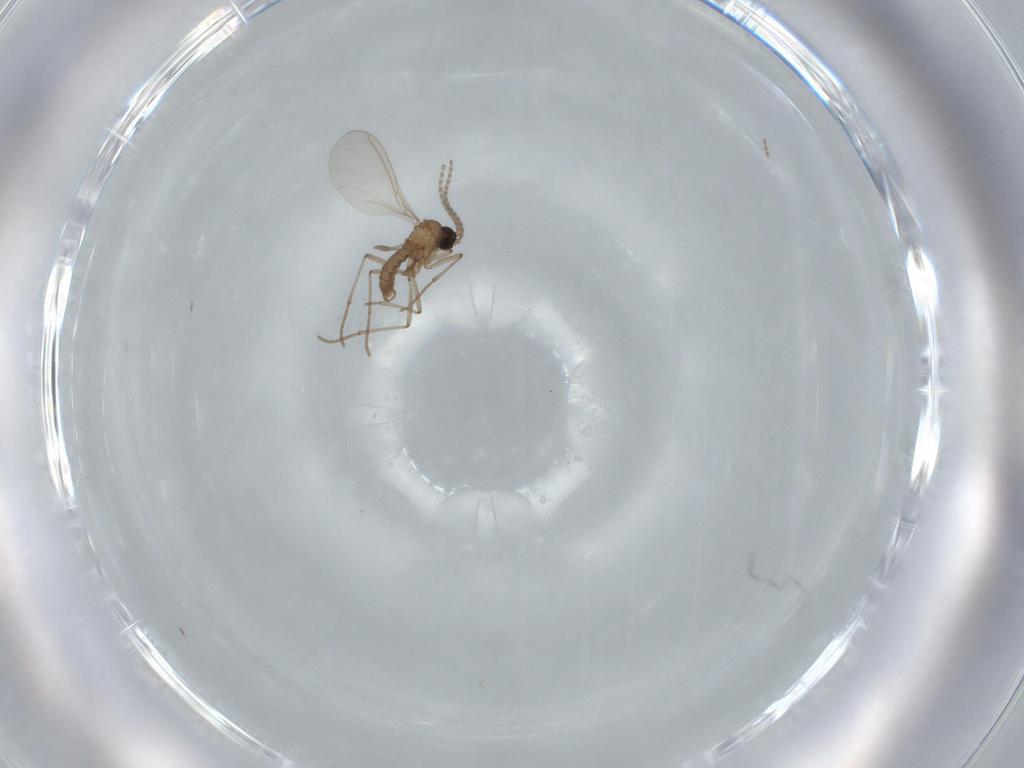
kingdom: Animalia
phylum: Arthropoda
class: Insecta
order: Diptera
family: Sciaridae
